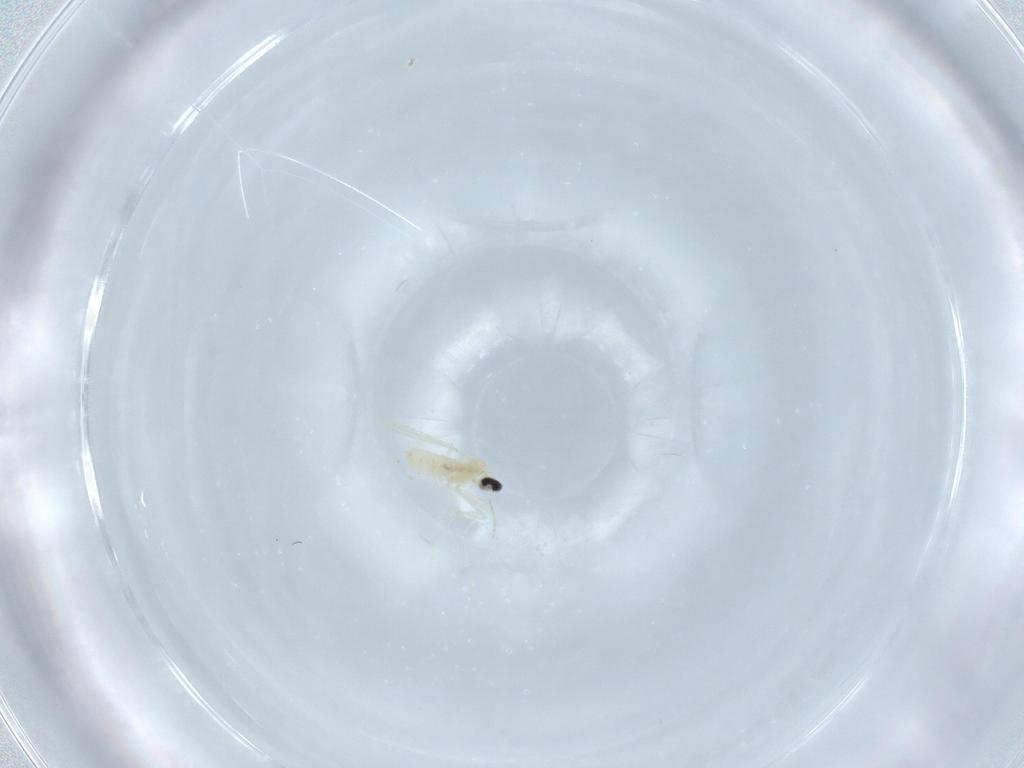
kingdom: Animalia
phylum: Arthropoda
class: Insecta
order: Diptera
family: Cecidomyiidae
